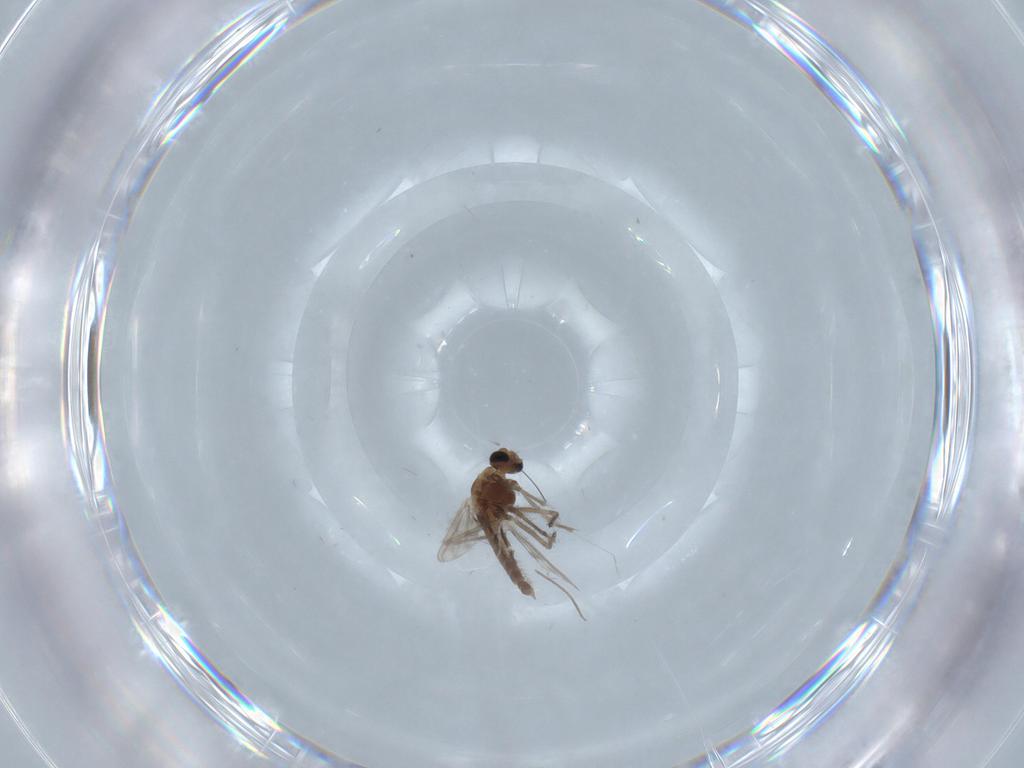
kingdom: Animalia
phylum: Arthropoda
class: Insecta
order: Diptera
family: Chironomidae
